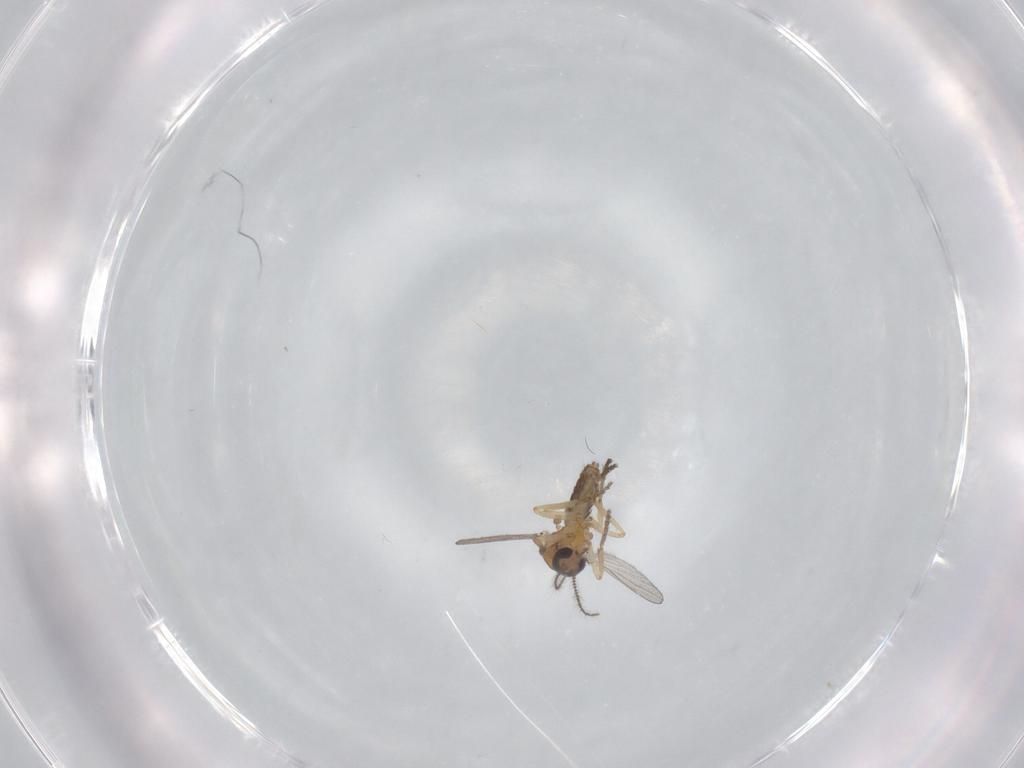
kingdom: Animalia
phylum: Arthropoda
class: Insecta
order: Diptera
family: Ceratopogonidae
